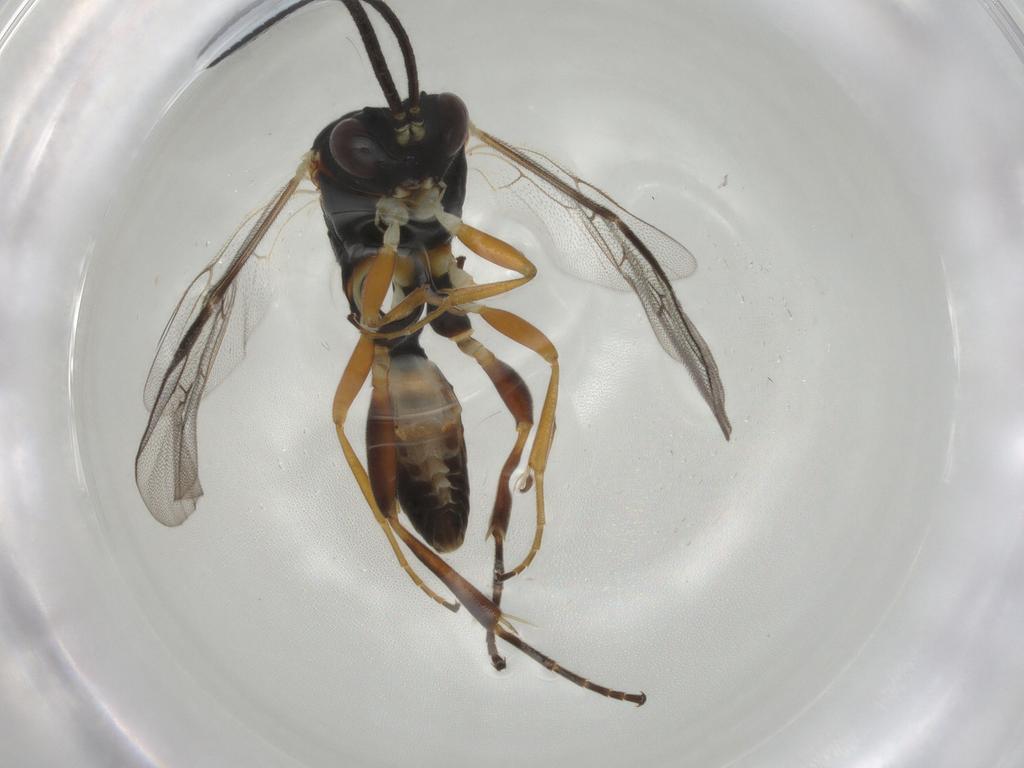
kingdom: Animalia
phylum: Arthropoda
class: Insecta
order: Hymenoptera
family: Ichneumonidae
